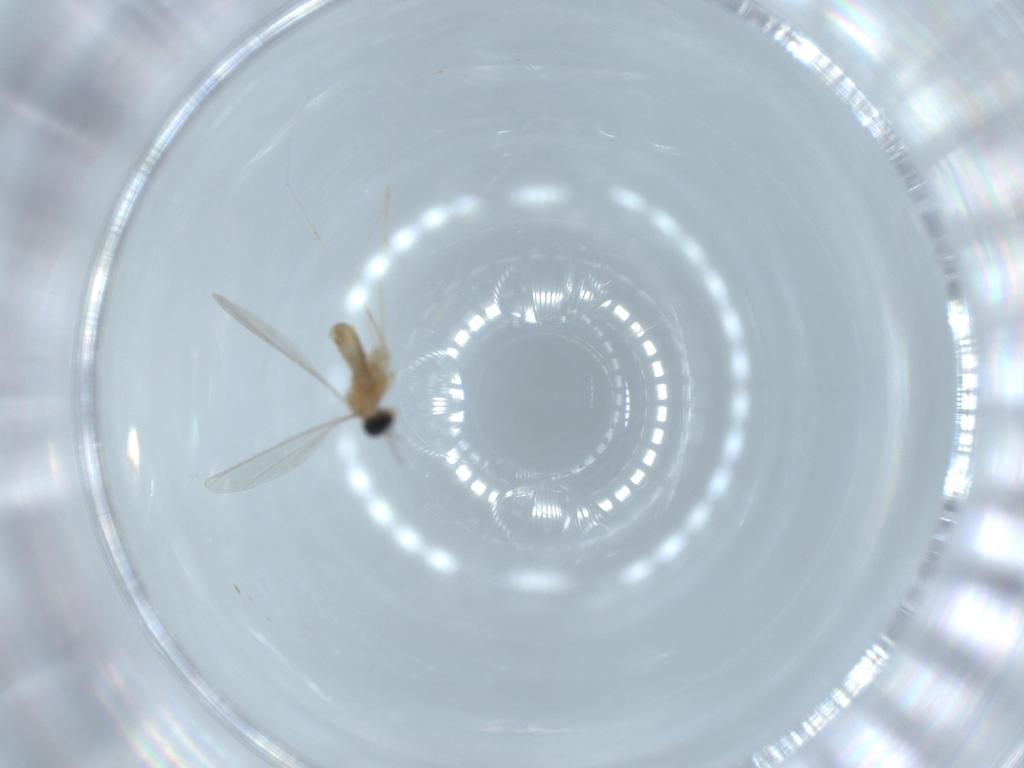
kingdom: Animalia
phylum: Arthropoda
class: Insecta
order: Diptera
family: Cecidomyiidae
